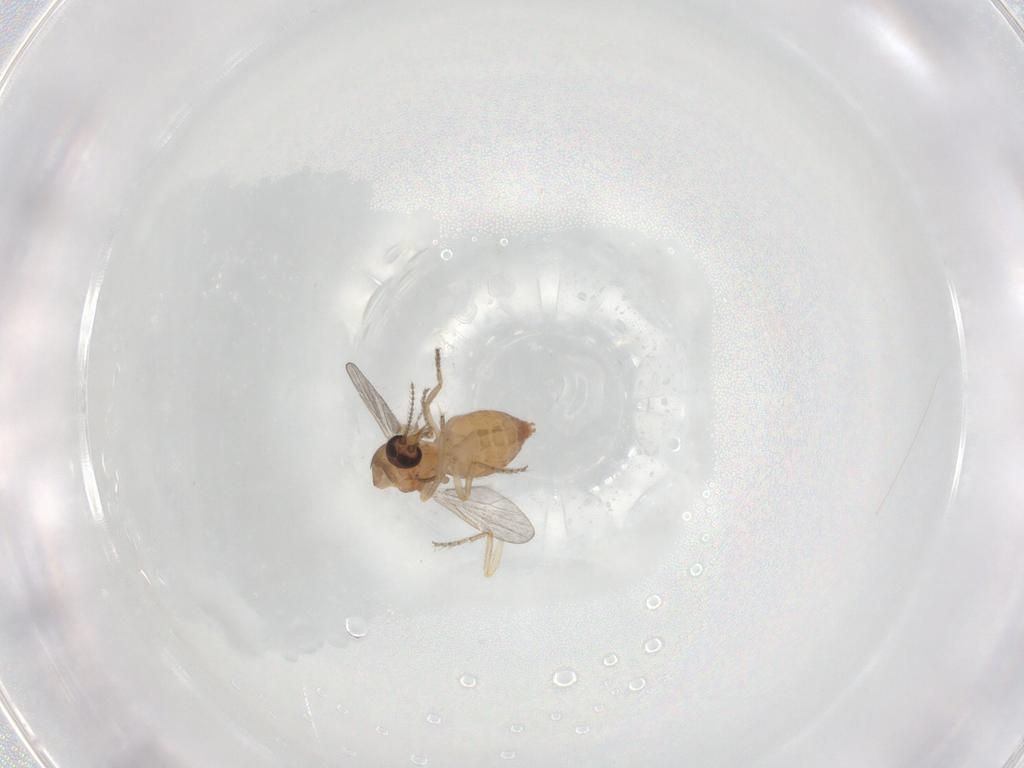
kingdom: Animalia
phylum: Arthropoda
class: Insecta
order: Diptera
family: Ceratopogonidae
